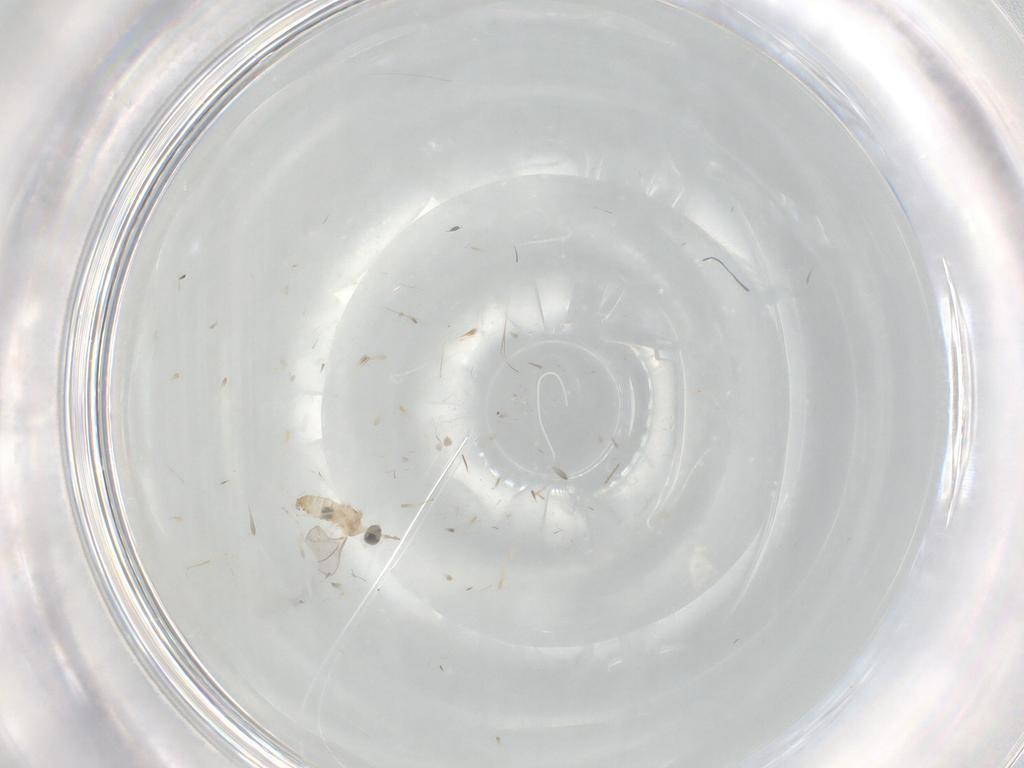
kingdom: Animalia
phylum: Arthropoda
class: Insecta
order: Diptera
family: Cecidomyiidae
